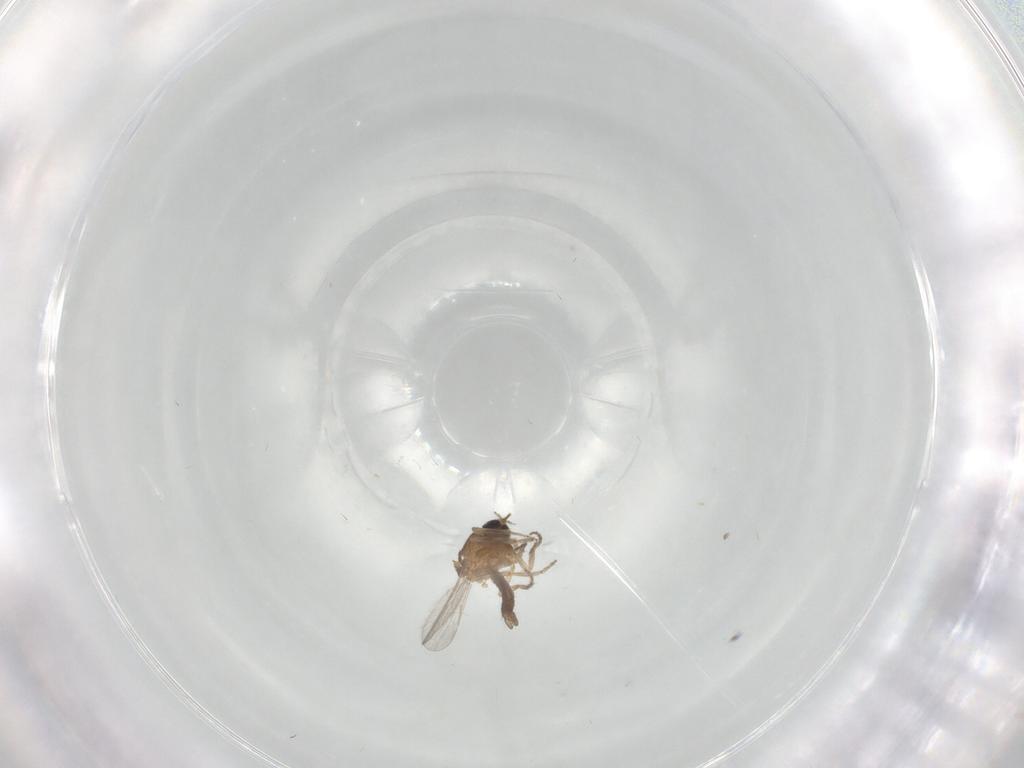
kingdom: Animalia
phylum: Arthropoda
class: Insecta
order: Diptera
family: Ceratopogonidae
